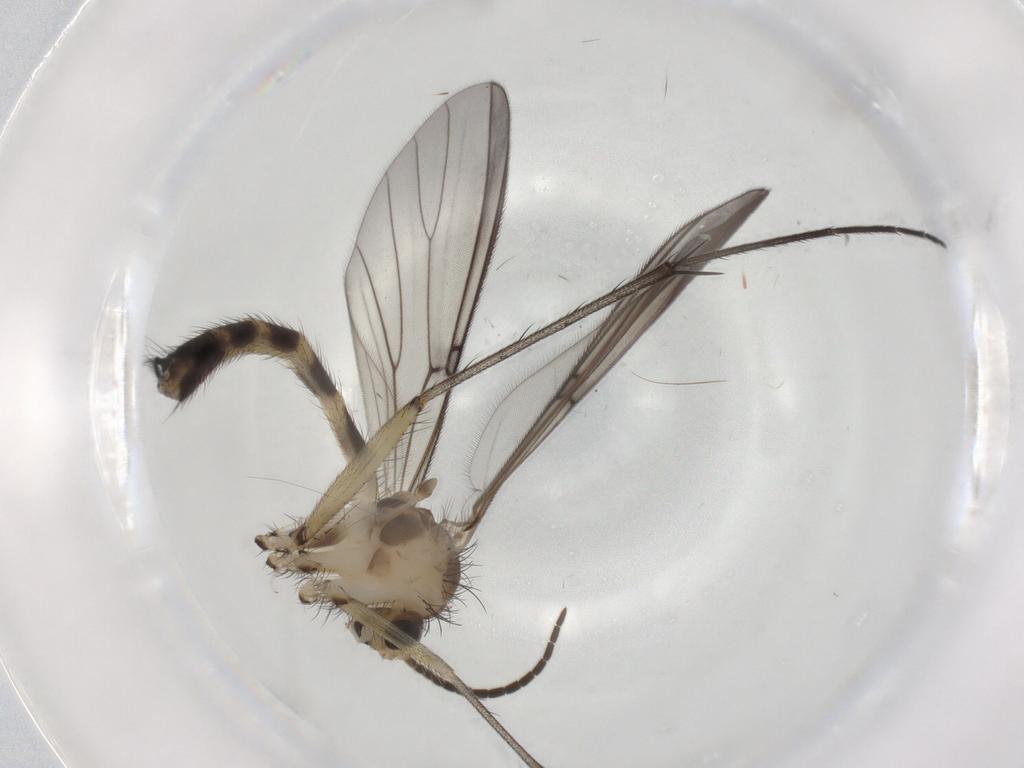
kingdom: Animalia
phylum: Arthropoda
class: Insecta
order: Diptera
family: Mycetophilidae
